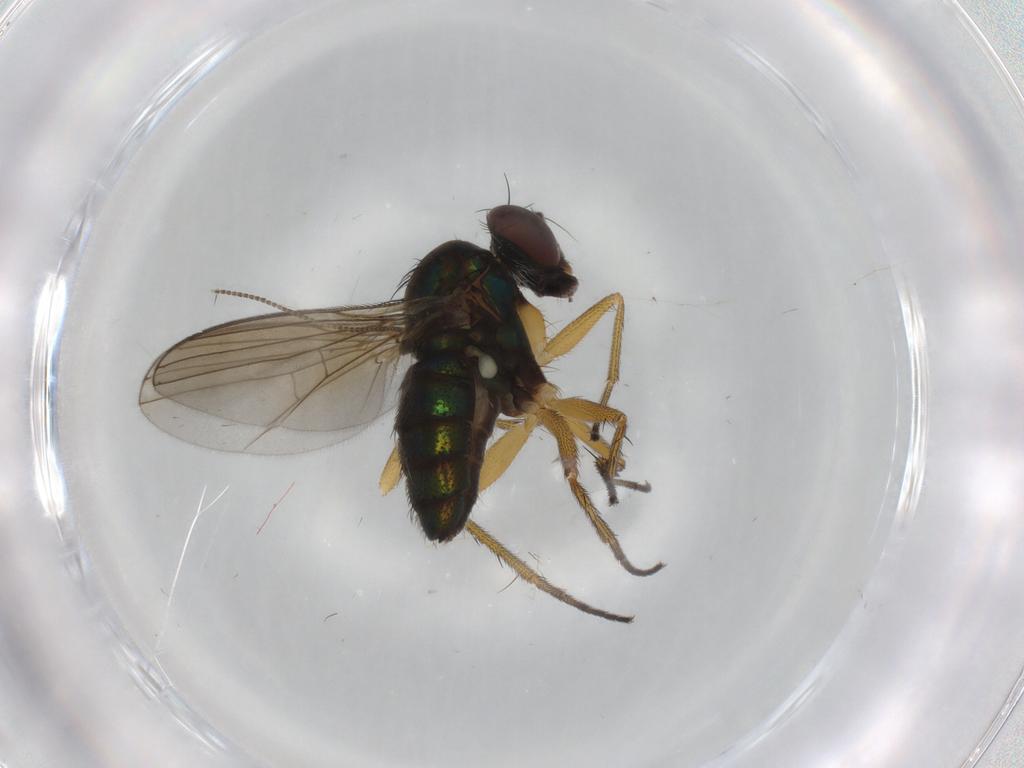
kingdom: Animalia
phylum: Arthropoda
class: Insecta
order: Diptera
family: Dolichopodidae
